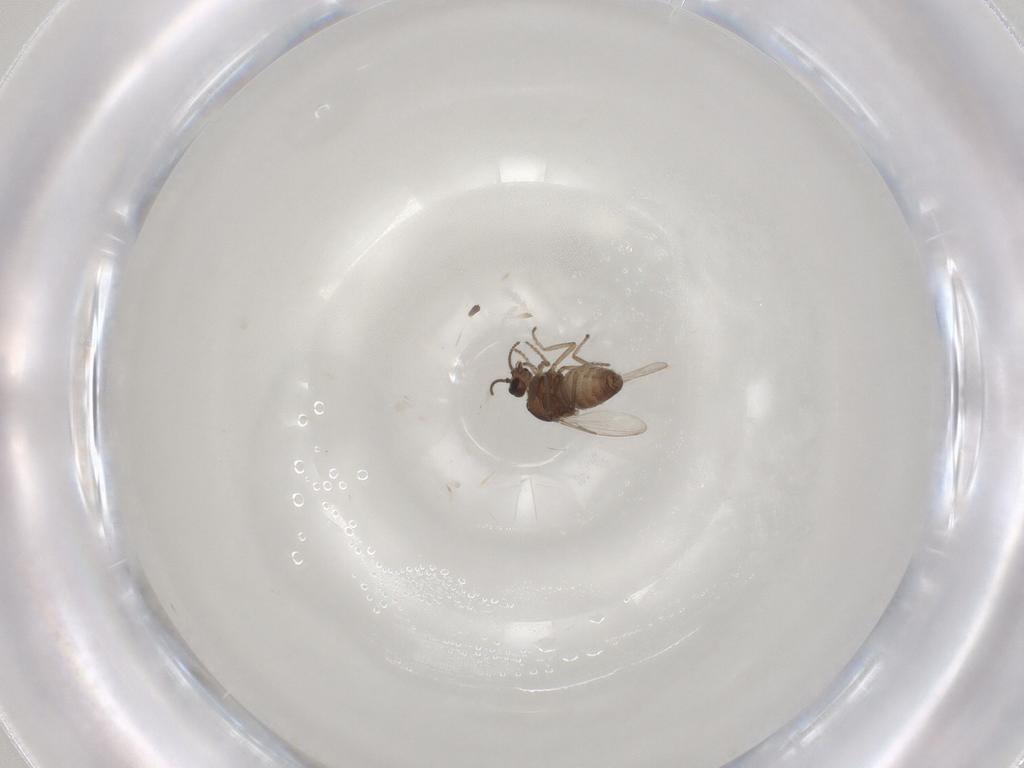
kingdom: Animalia
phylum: Arthropoda
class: Insecta
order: Diptera
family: Ceratopogonidae
